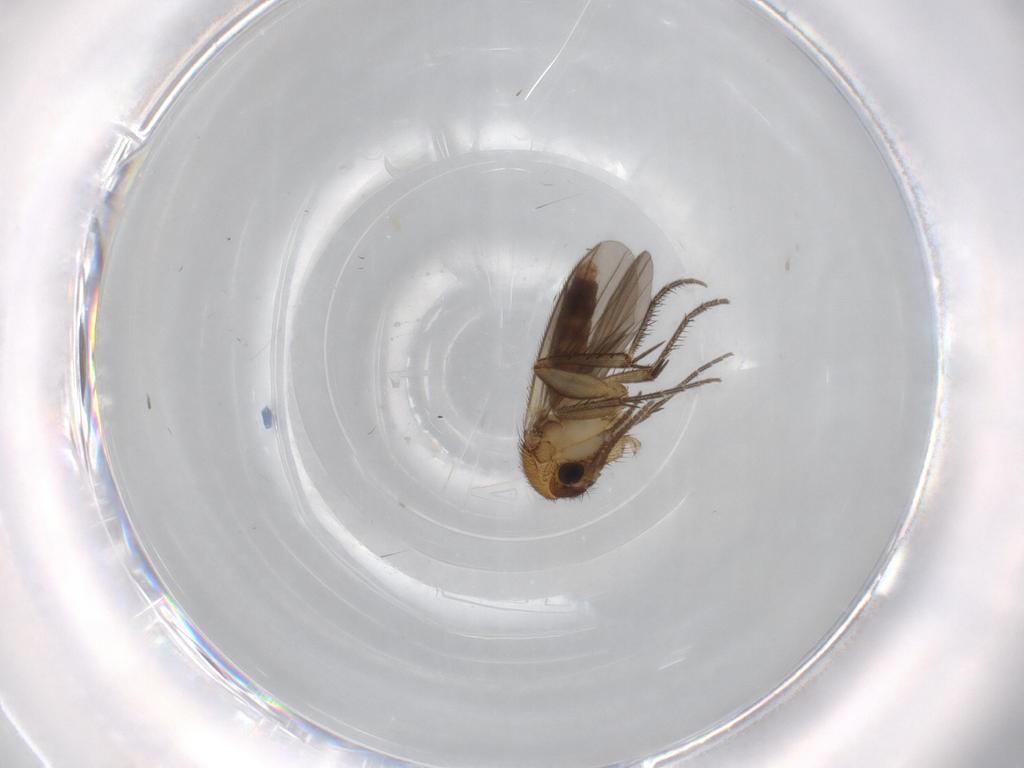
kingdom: Animalia
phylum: Arthropoda
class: Insecta
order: Diptera
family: Mycetophilidae
